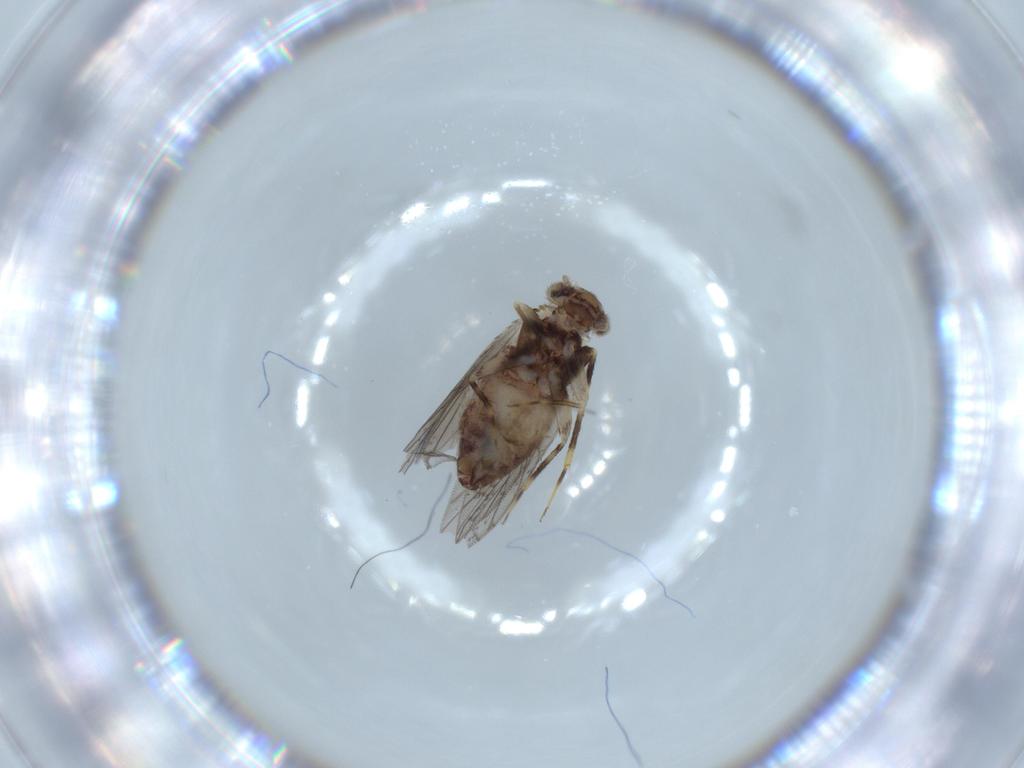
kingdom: Animalia
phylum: Arthropoda
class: Insecta
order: Psocodea
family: Lepidopsocidae
